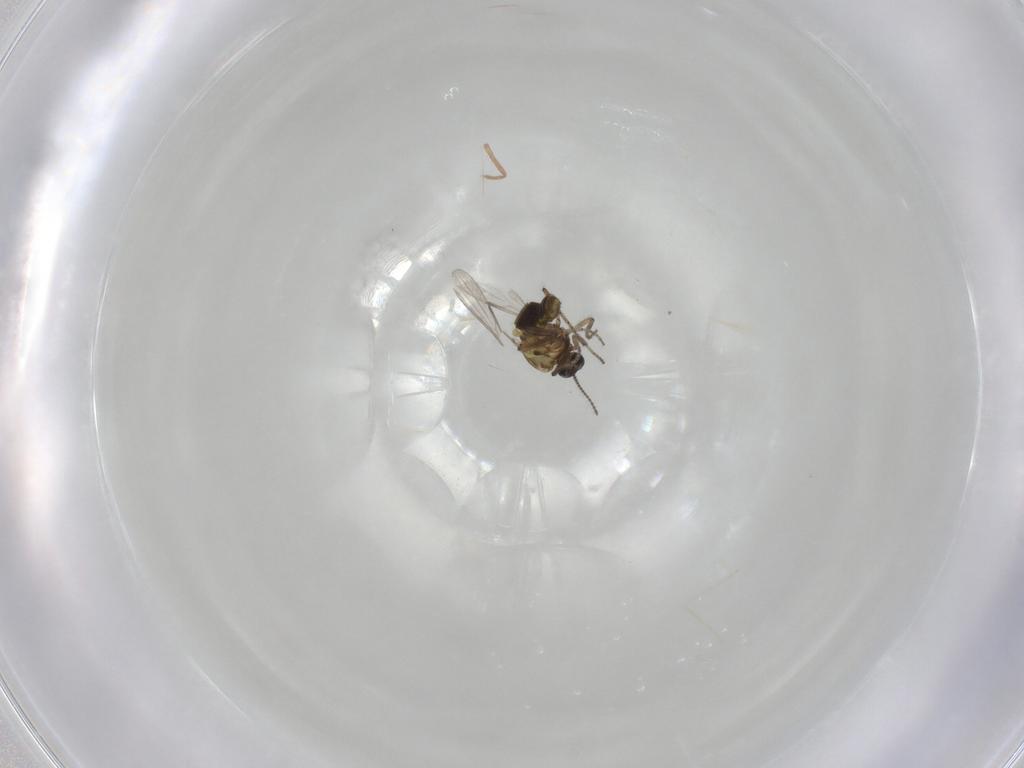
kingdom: Animalia
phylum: Arthropoda
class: Insecta
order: Diptera
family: Ceratopogonidae
